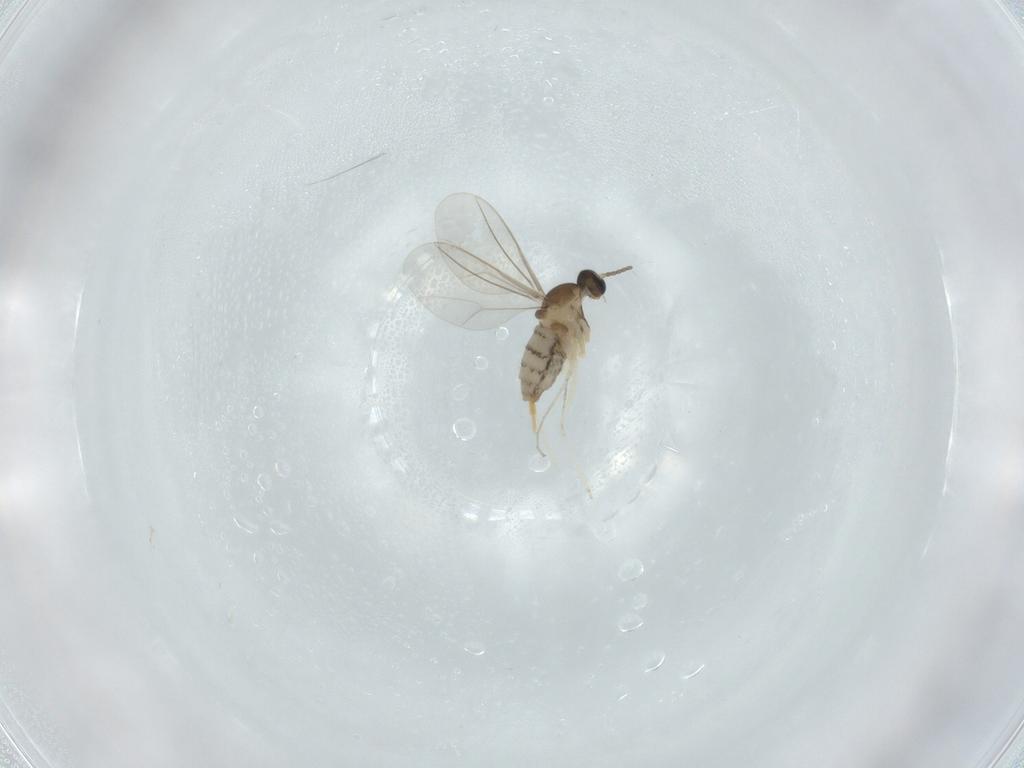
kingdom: Animalia
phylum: Arthropoda
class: Insecta
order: Diptera
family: Cecidomyiidae
